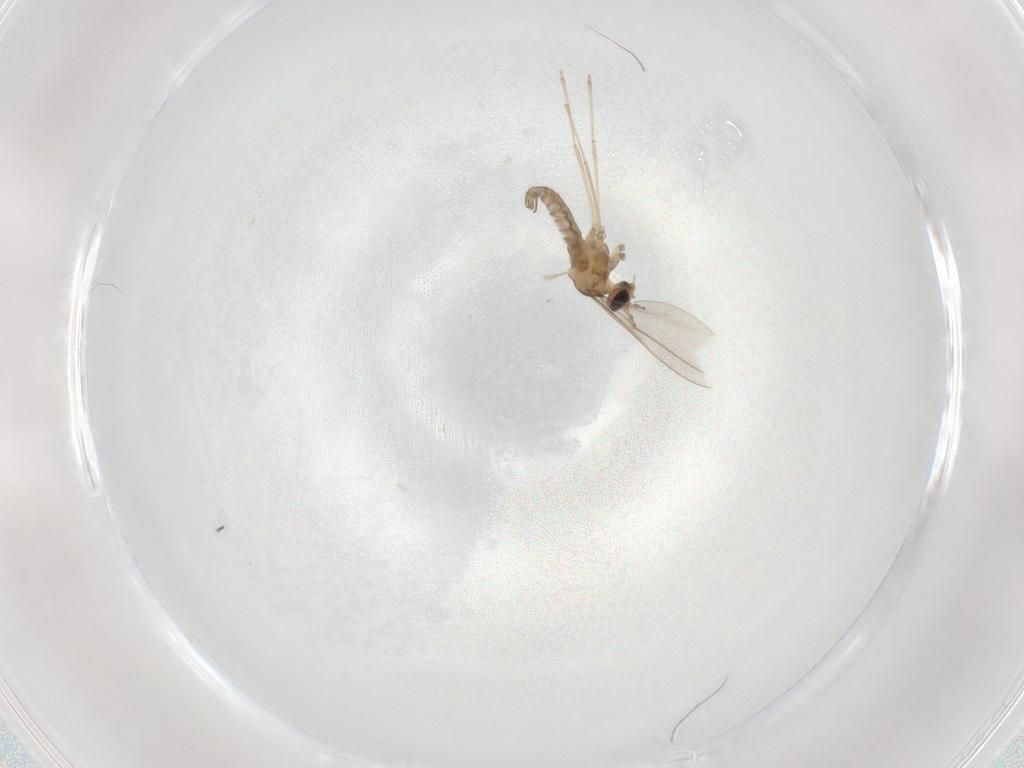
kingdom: Animalia
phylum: Arthropoda
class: Insecta
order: Diptera
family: Cecidomyiidae
